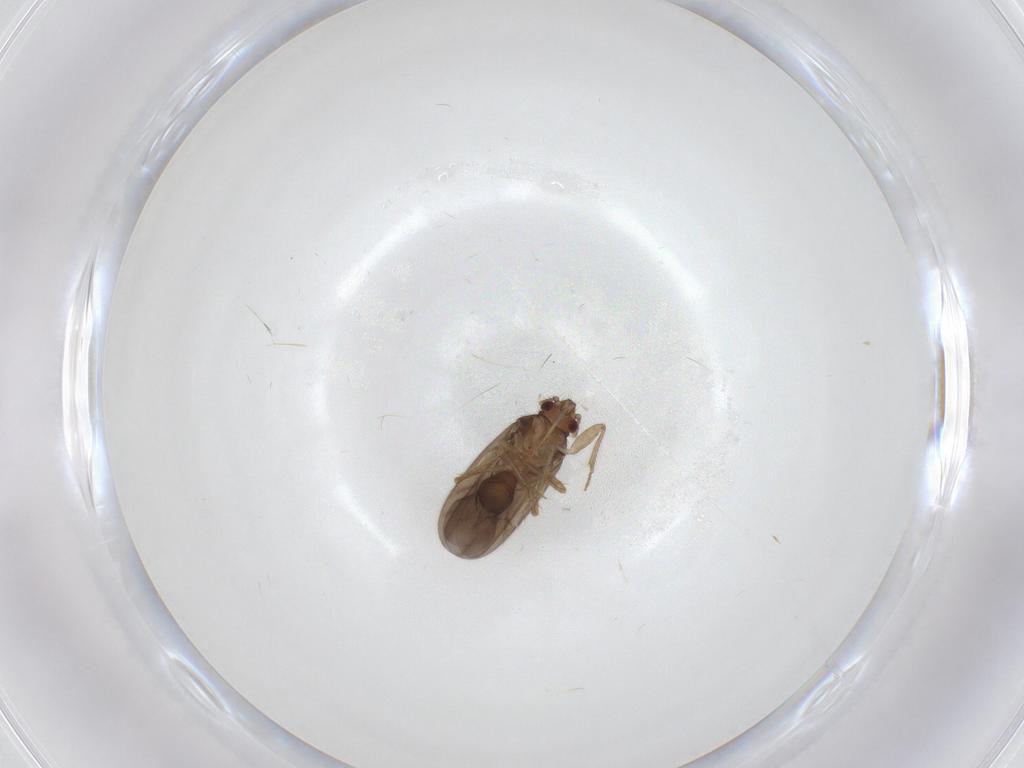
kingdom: Animalia
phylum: Arthropoda
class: Insecta
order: Hemiptera
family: Ceratocombidae
